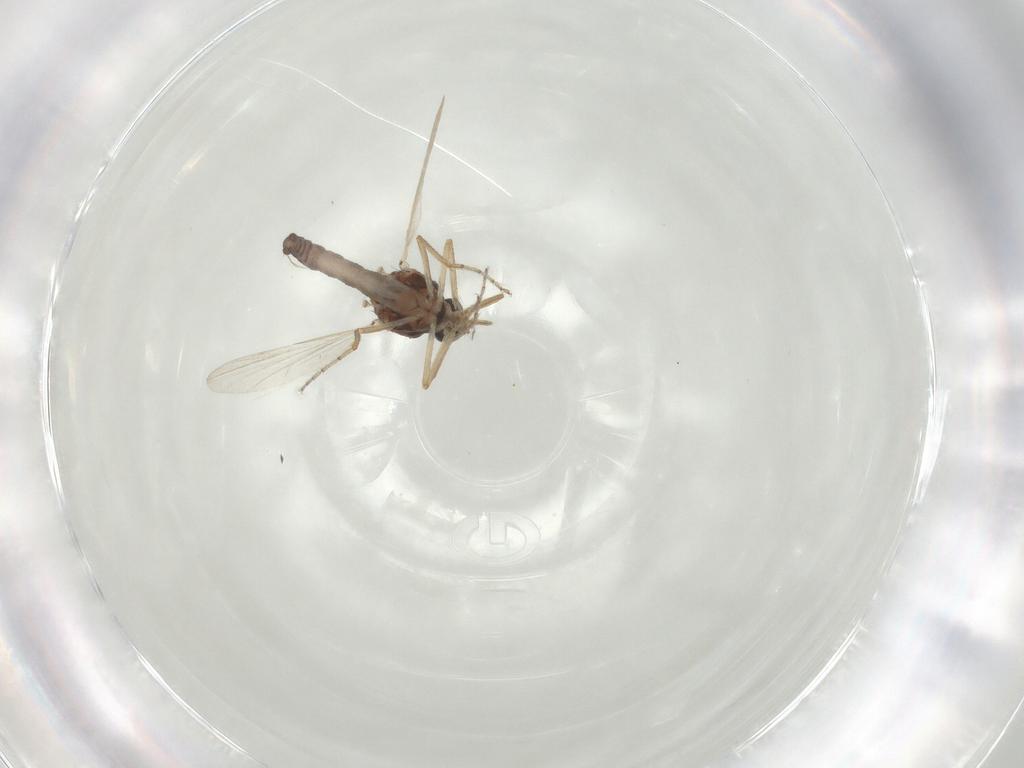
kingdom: Animalia
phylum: Arthropoda
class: Insecta
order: Diptera
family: Ceratopogonidae
